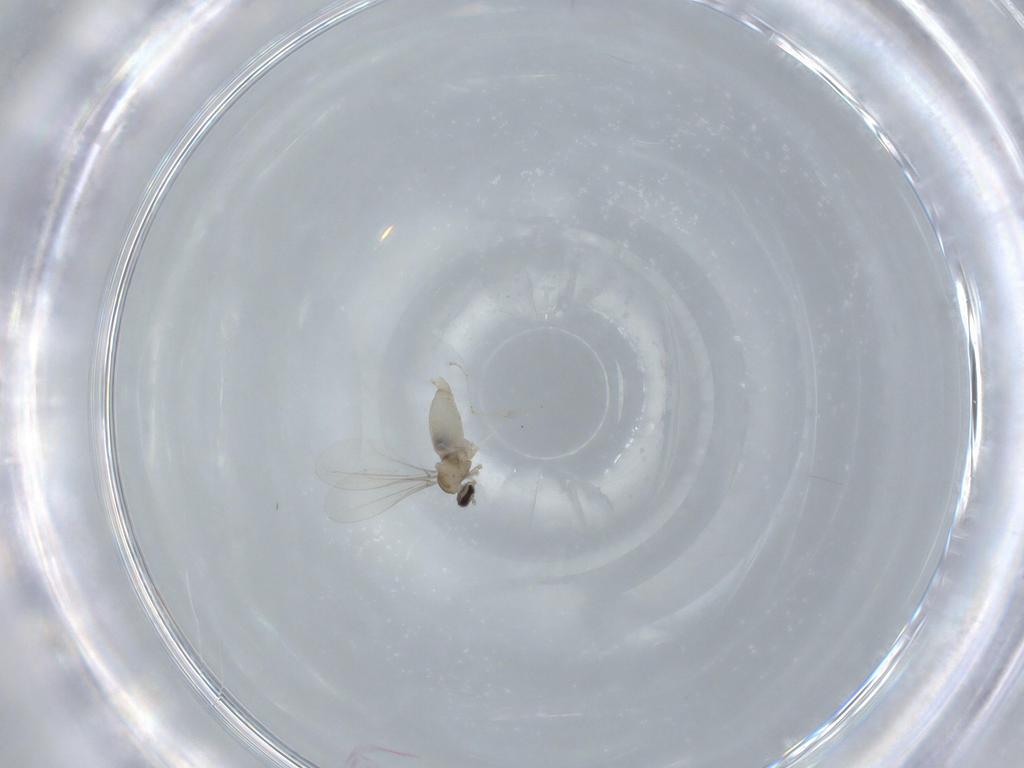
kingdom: Animalia
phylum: Arthropoda
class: Insecta
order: Diptera
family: Cecidomyiidae
